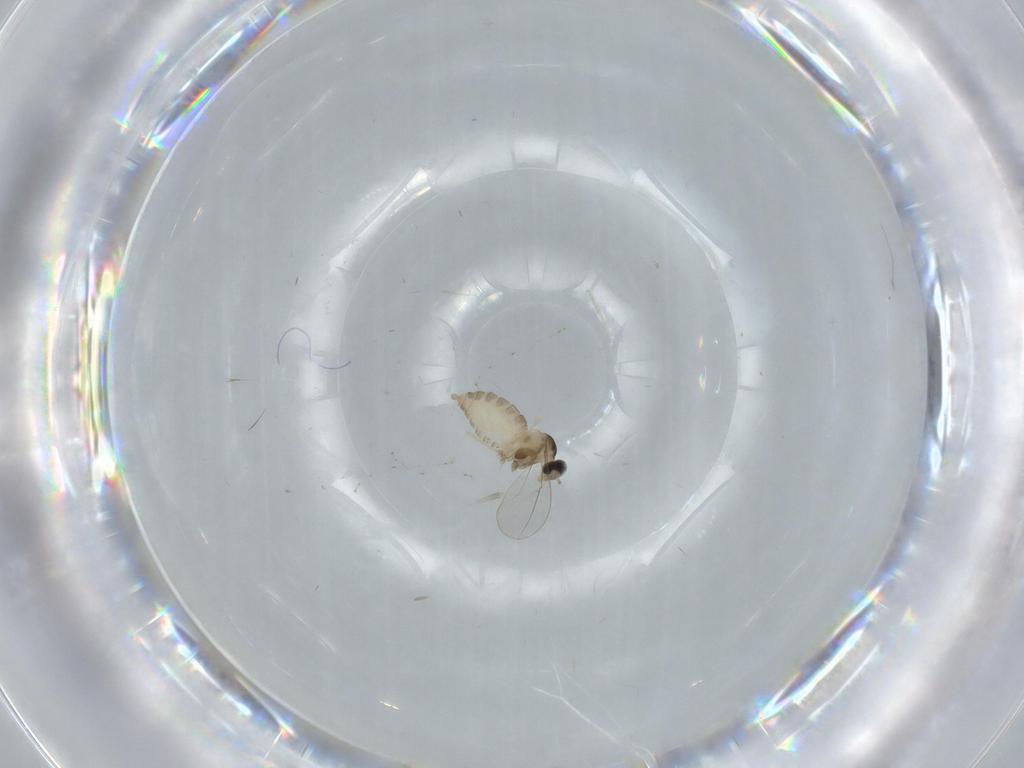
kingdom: Animalia
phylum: Arthropoda
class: Insecta
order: Diptera
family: Cecidomyiidae
